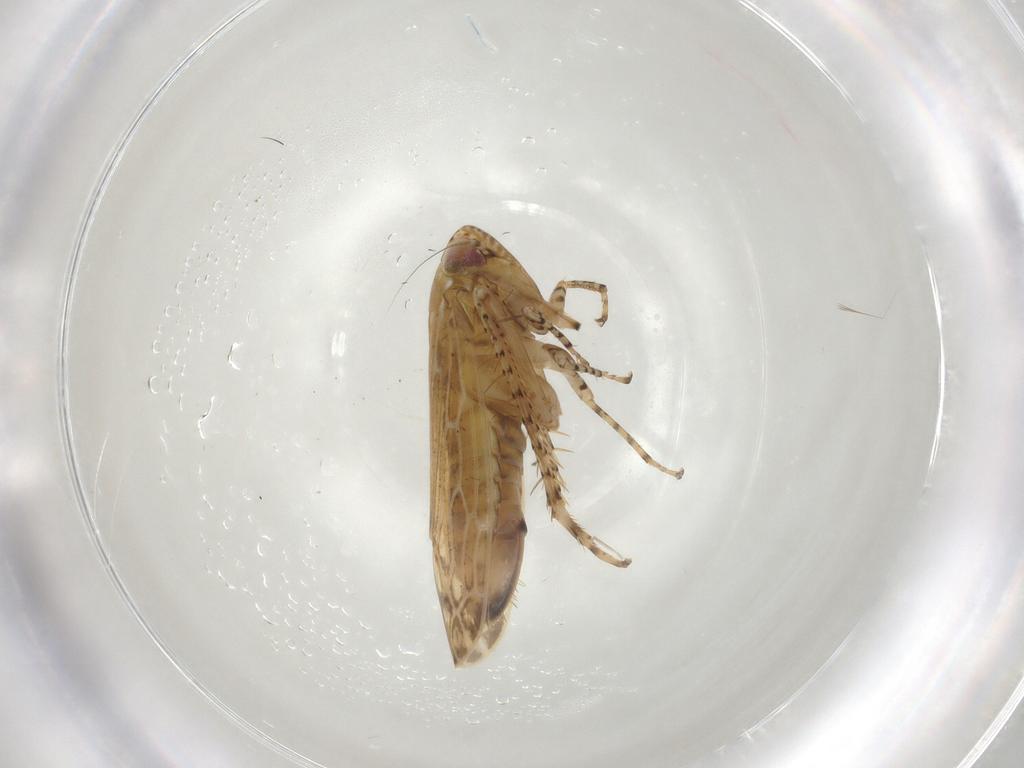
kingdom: Animalia
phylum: Arthropoda
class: Insecta
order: Hemiptera
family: Cicadellidae
